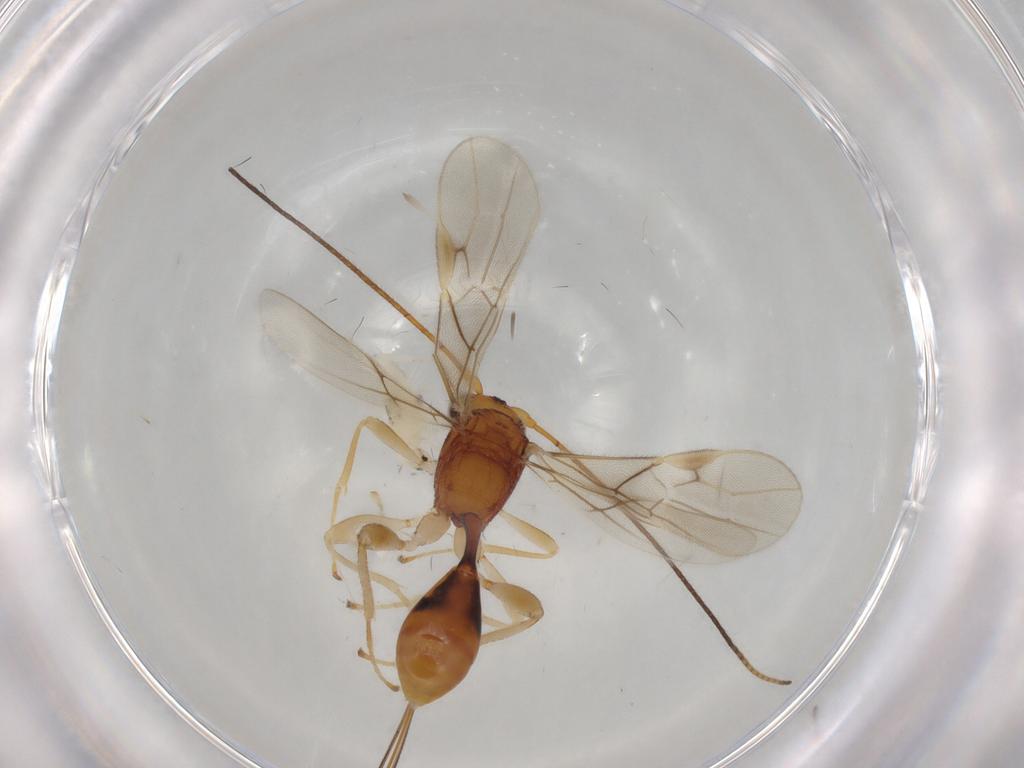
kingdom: Animalia
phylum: Arthropoda
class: Insecta
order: Hymenoptera
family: Braconidae
